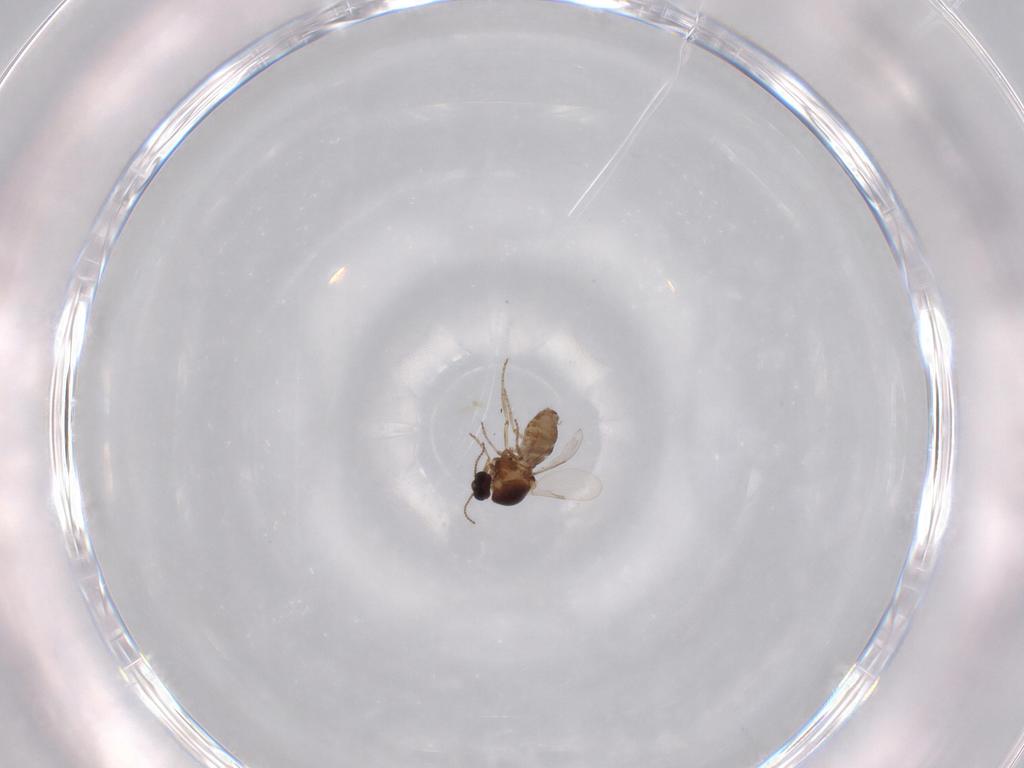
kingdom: Animalia
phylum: Arthropoda
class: Insecta
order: Diptera
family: Ceratopogonidae
